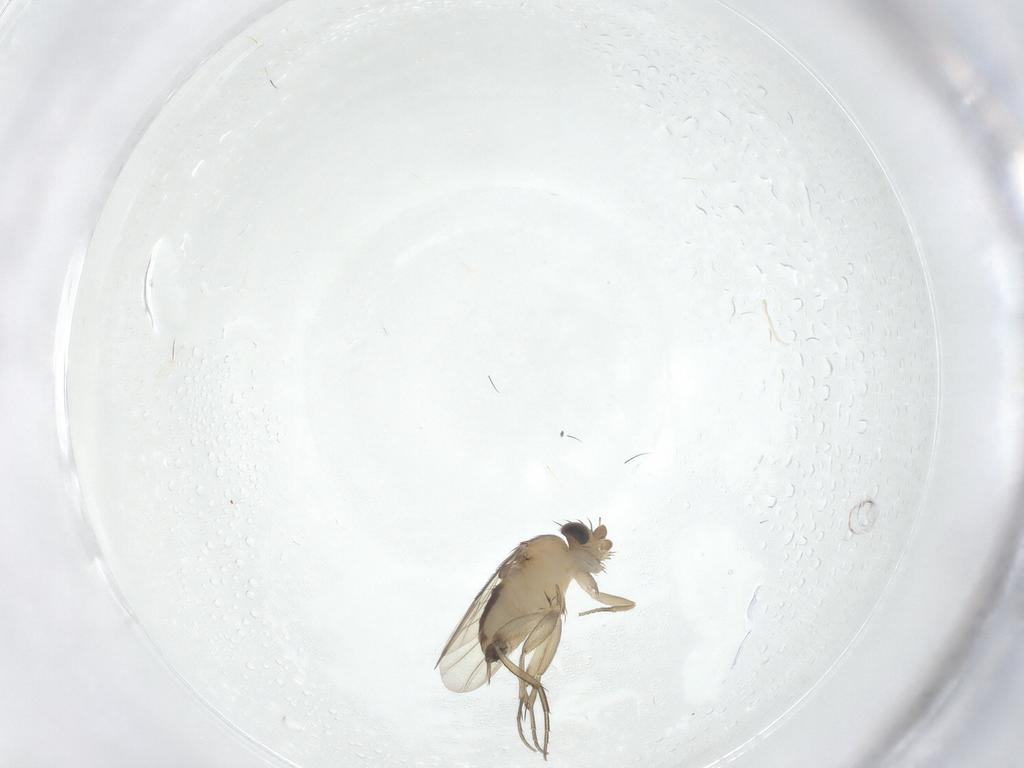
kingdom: Animalia
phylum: Arthropoda
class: Insecta
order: Diptera
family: Phoridae
